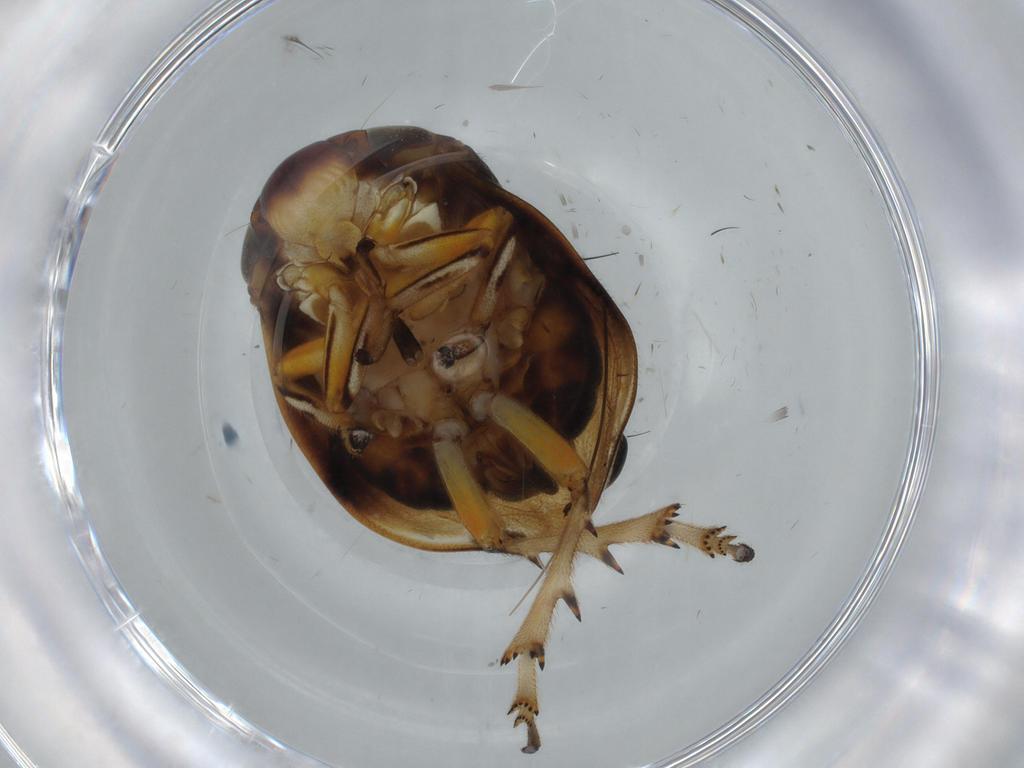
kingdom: Animalia
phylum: Arthropoda
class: Insecta
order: Hemiptera
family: Clastopteridae
